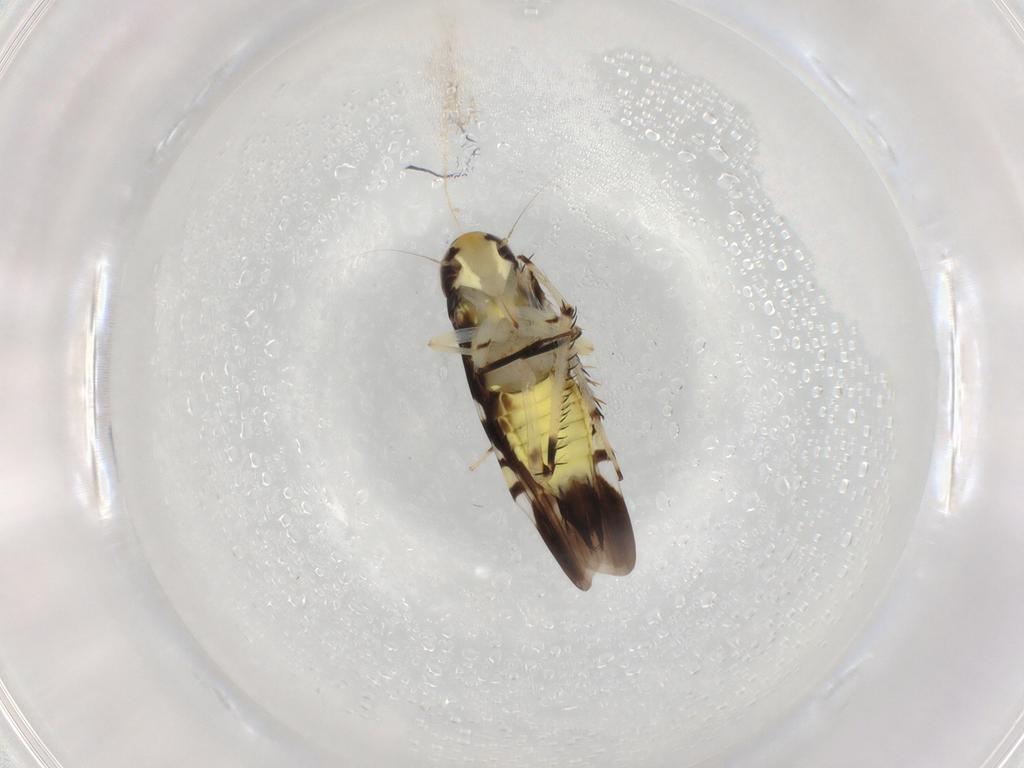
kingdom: Animalia
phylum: Arthropoda
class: Insecta
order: Hemiptera
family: Cicadellidae
